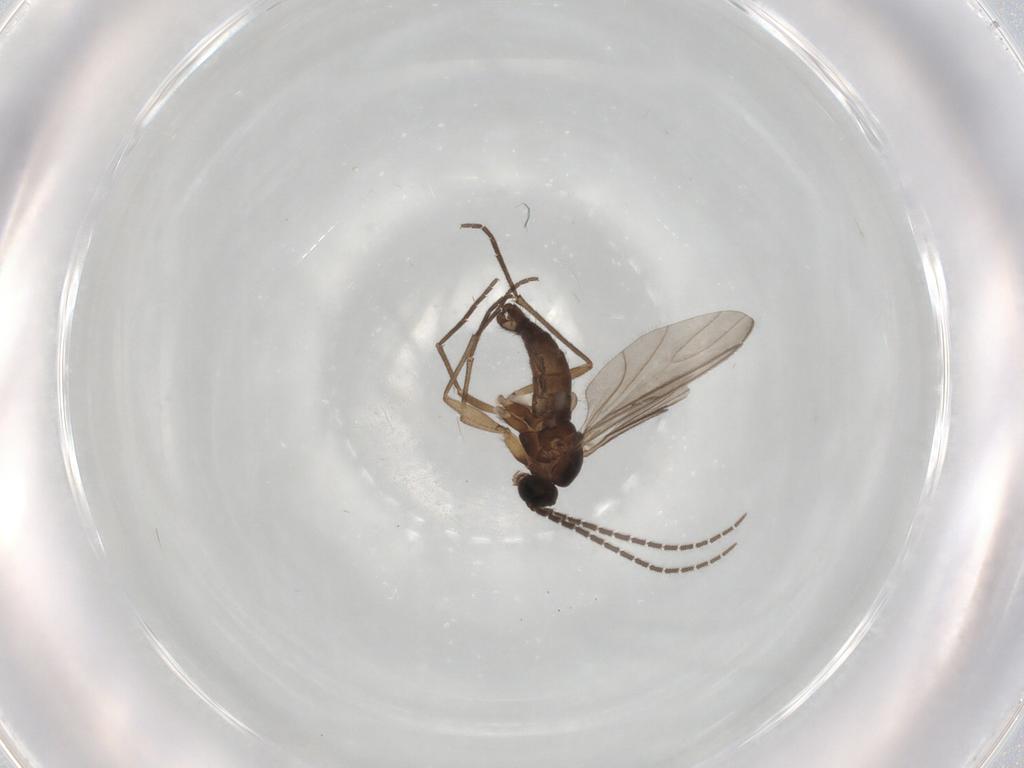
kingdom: Animalia
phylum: Arthropoda
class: Insecta
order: Diptera
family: Sciaridae
